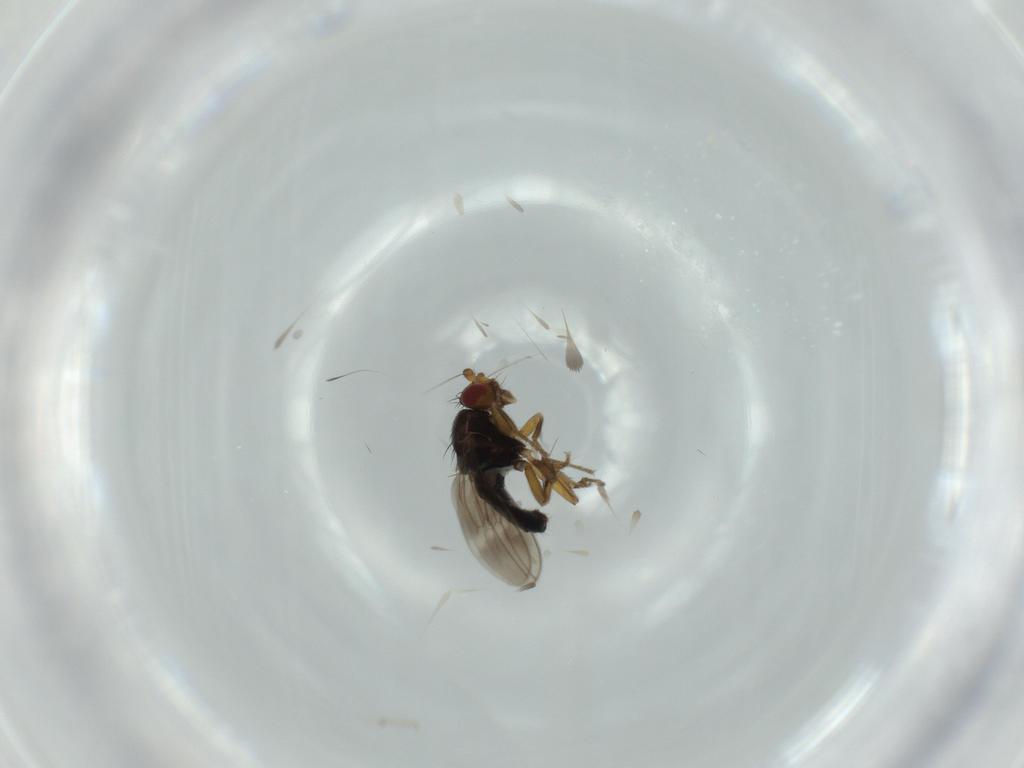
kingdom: Animalia
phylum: Arthropoda
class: Insecta
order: Diptera
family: Sphaeroceridae
